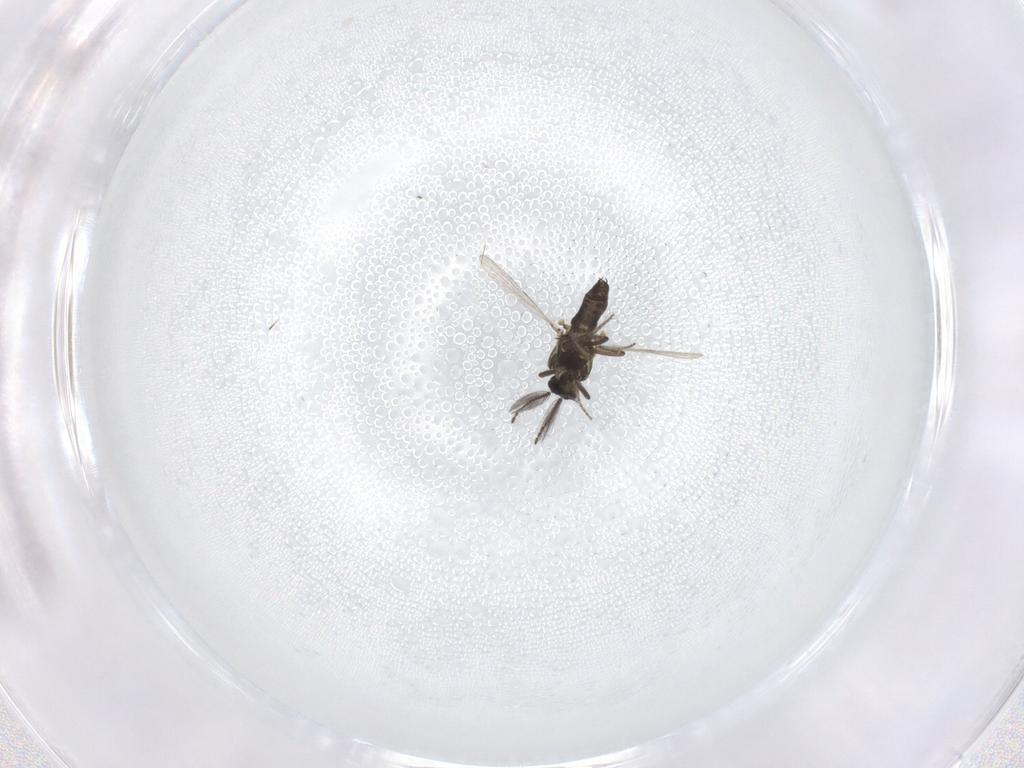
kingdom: Animalia
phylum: Arthropoda
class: Insecta
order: Diptera
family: Ceratopogonidae
